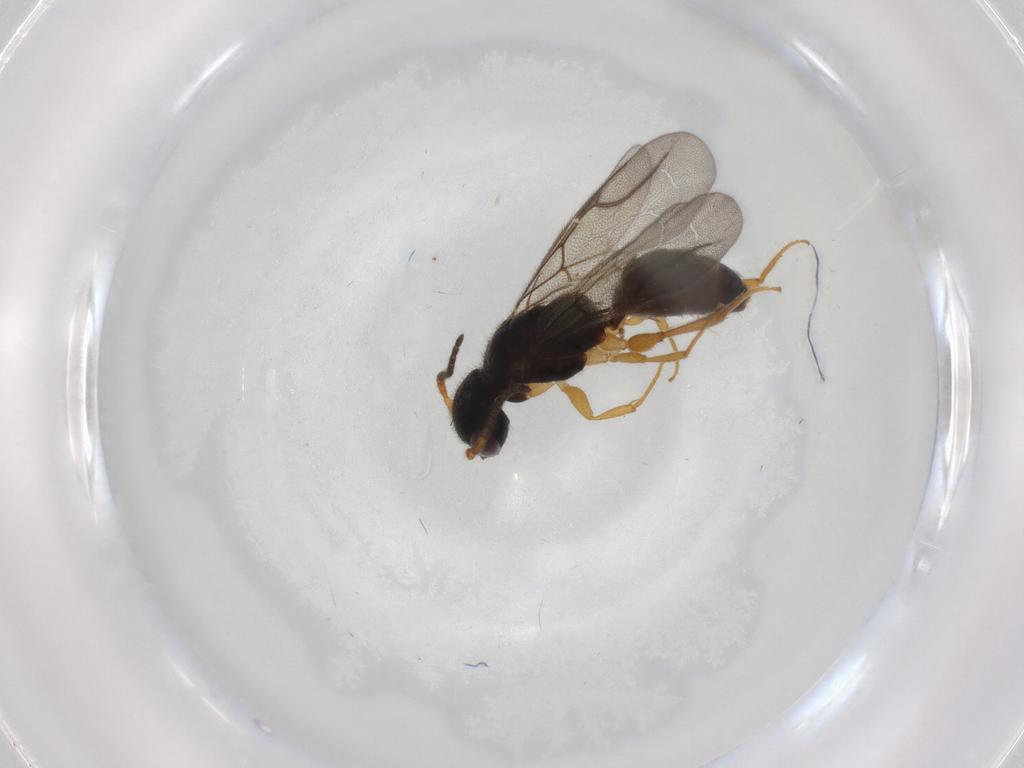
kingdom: Animalia
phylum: Arthropoda
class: Insecta
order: Hymenoptera
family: Bethylidae
